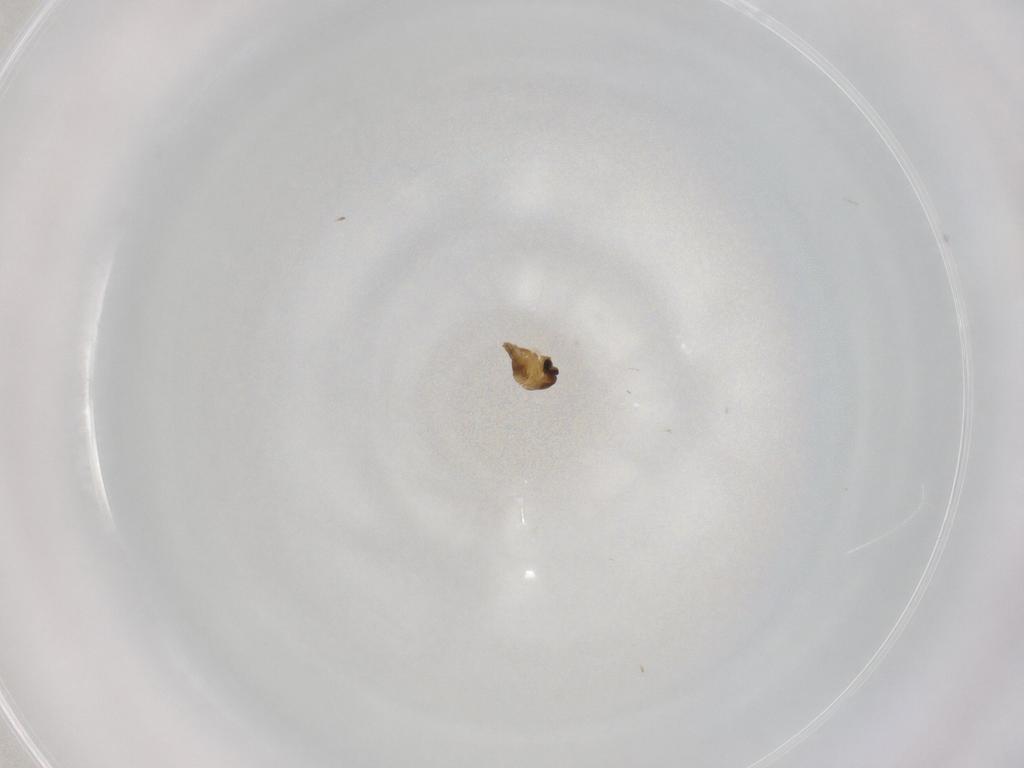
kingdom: Animalia
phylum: Arthropoda
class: Insecta
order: Diptera
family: Cecidomyiidae
